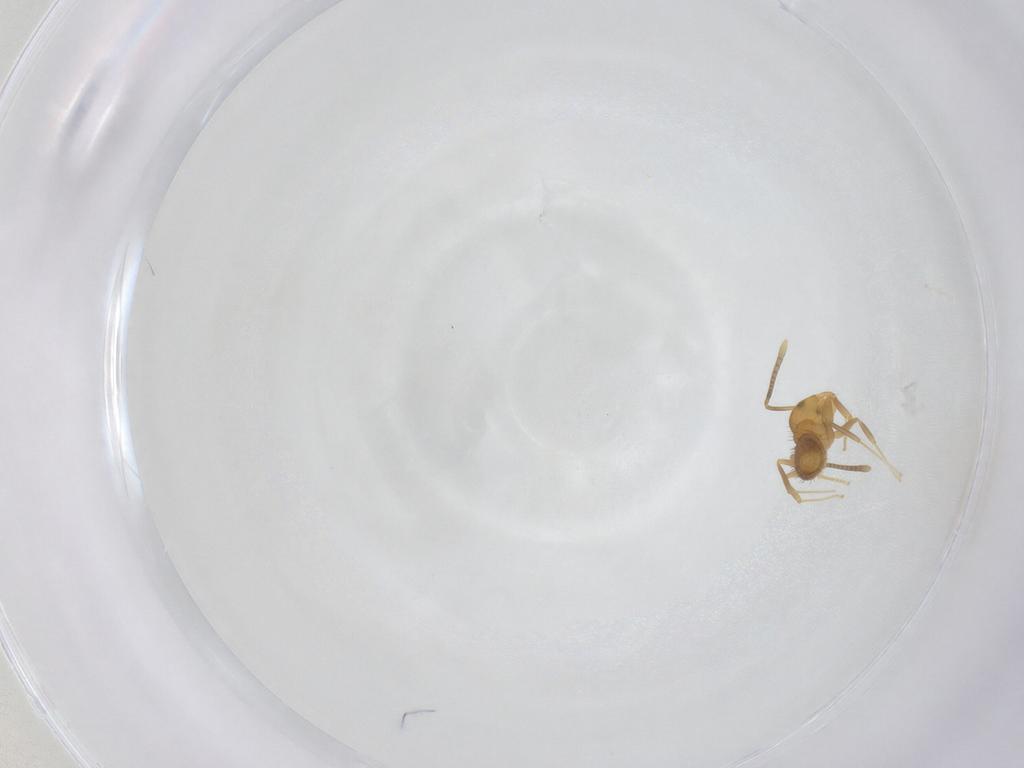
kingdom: Animalia
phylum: Arthropoda
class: Insecta
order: Hymenoptera
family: Formicidae
